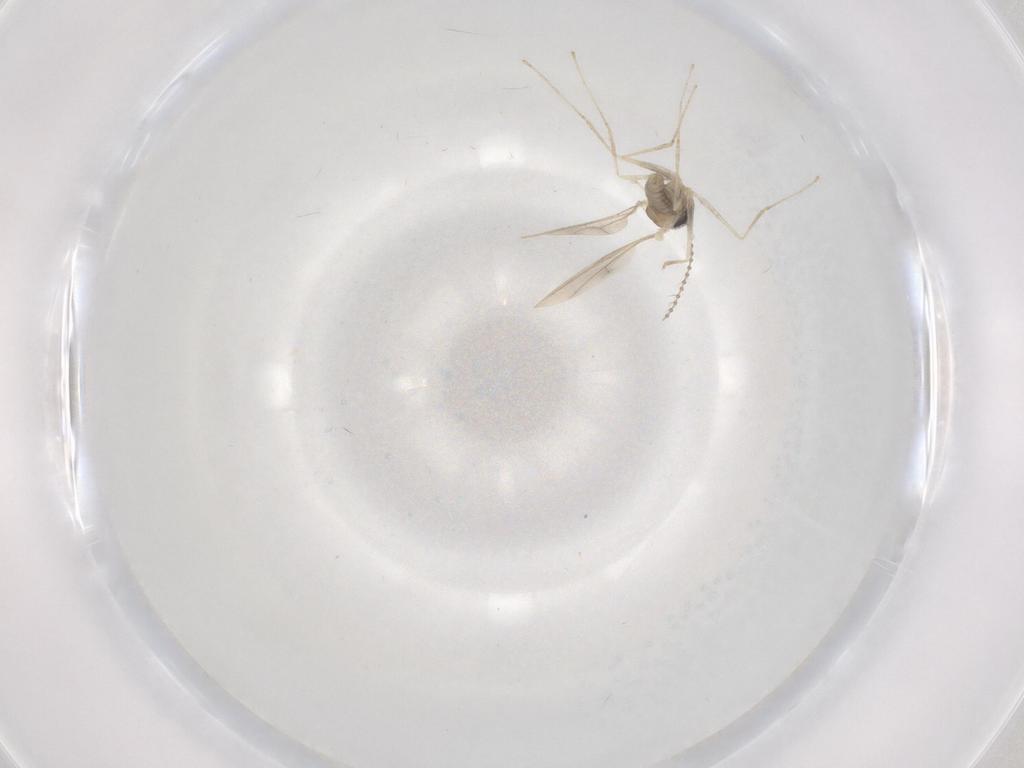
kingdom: Animalia
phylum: Arthropoda
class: Insecta
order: Diptera
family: Cecidomyiidae
